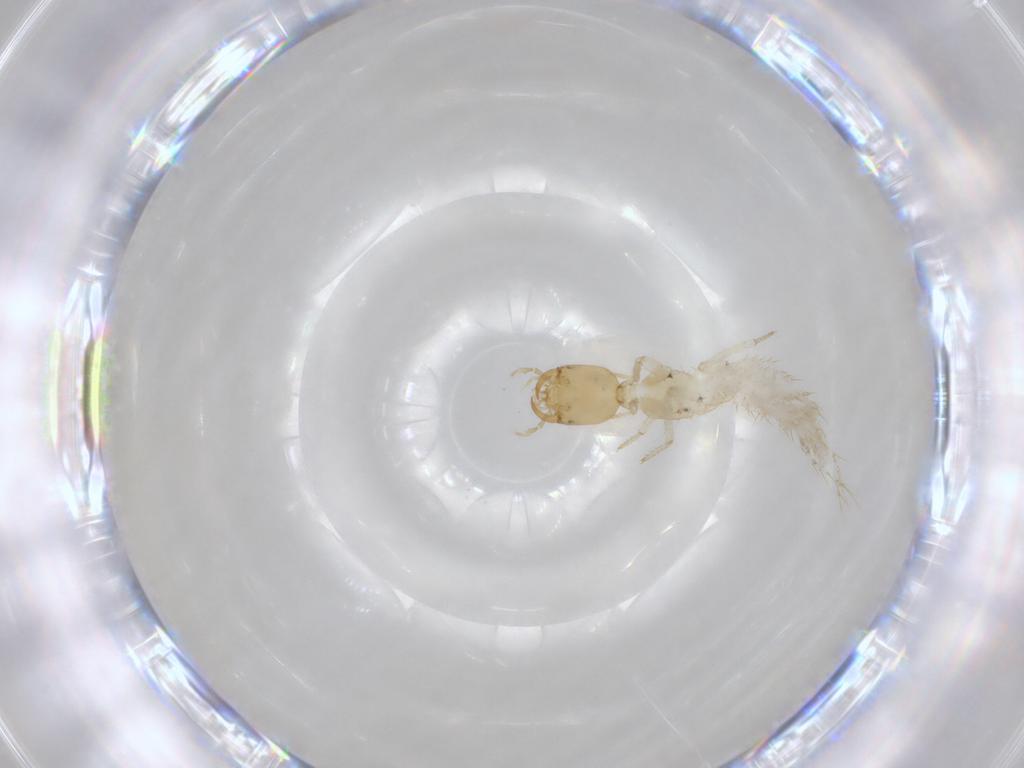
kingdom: Animalia
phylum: Arthropoda
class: Insecta
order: Coleoptera
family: Staphylinidae
